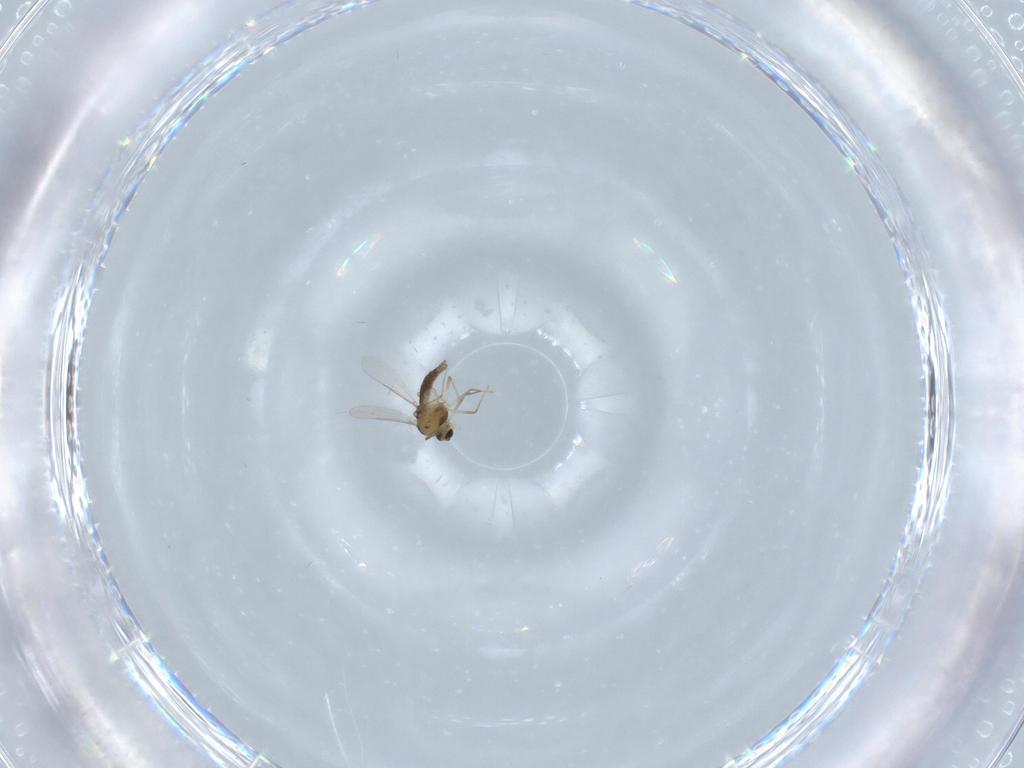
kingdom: Animalia
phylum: Arthropoda
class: Insecta
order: Diptera
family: Chironomidae
